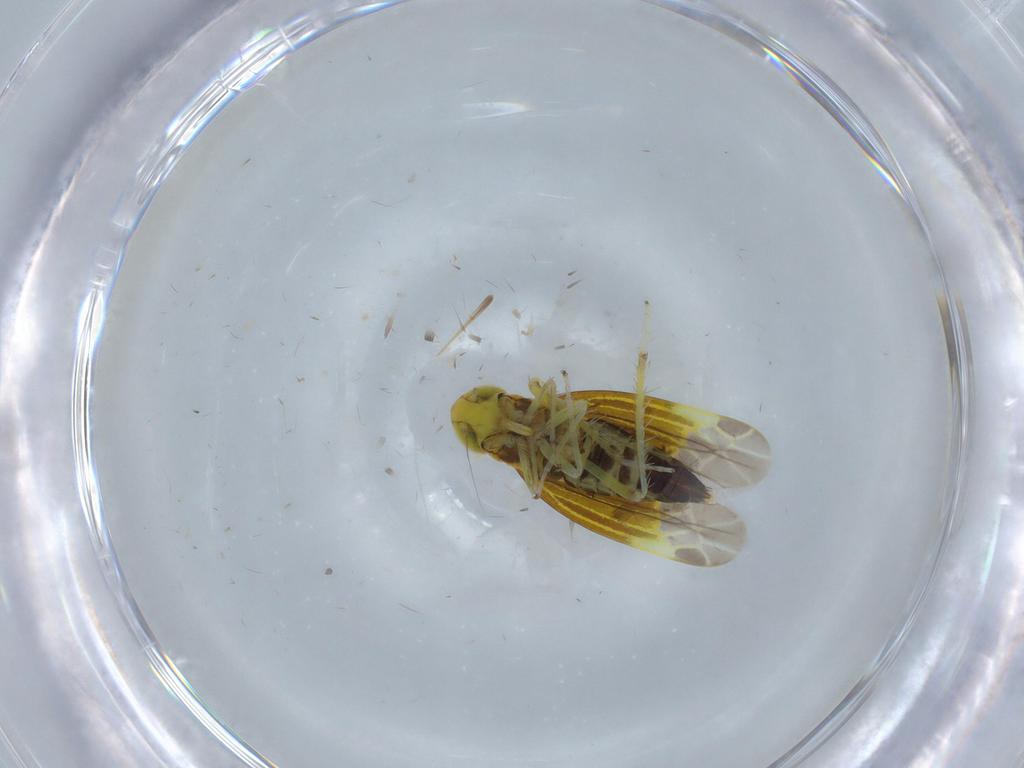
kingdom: Animalia
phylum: Arthropoda
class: Insecta
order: Hemiptera
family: Cicadellidae
